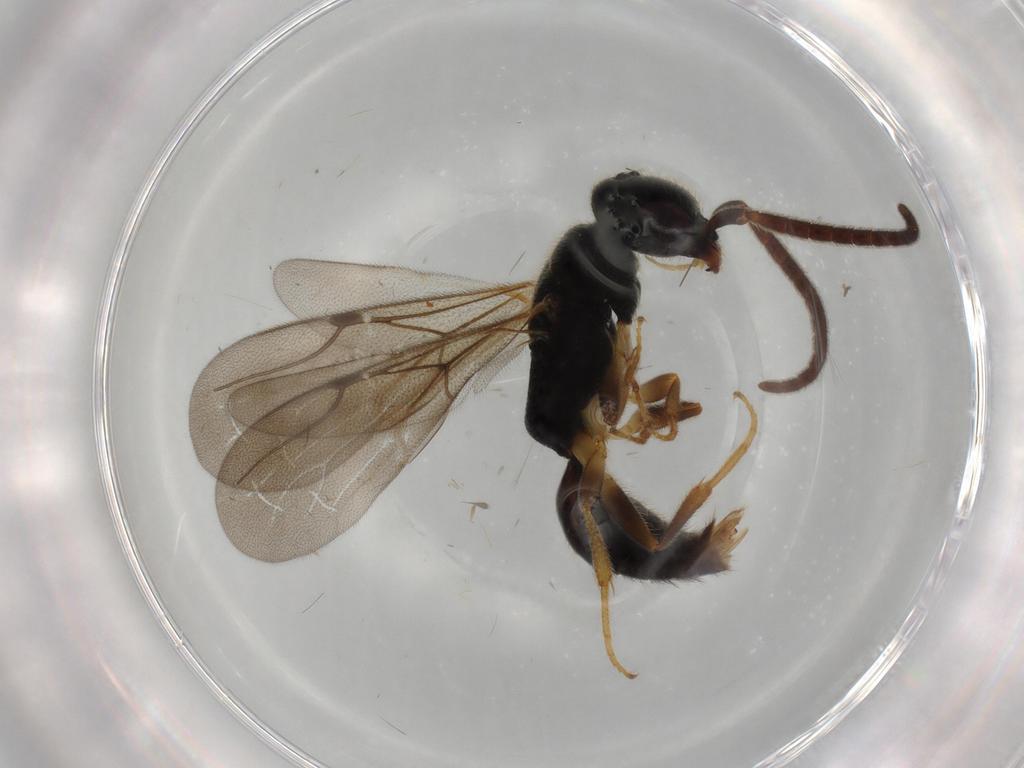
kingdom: Animalia
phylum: Arthropoda
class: Insecta
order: Hymenoptera
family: Bethylidae
